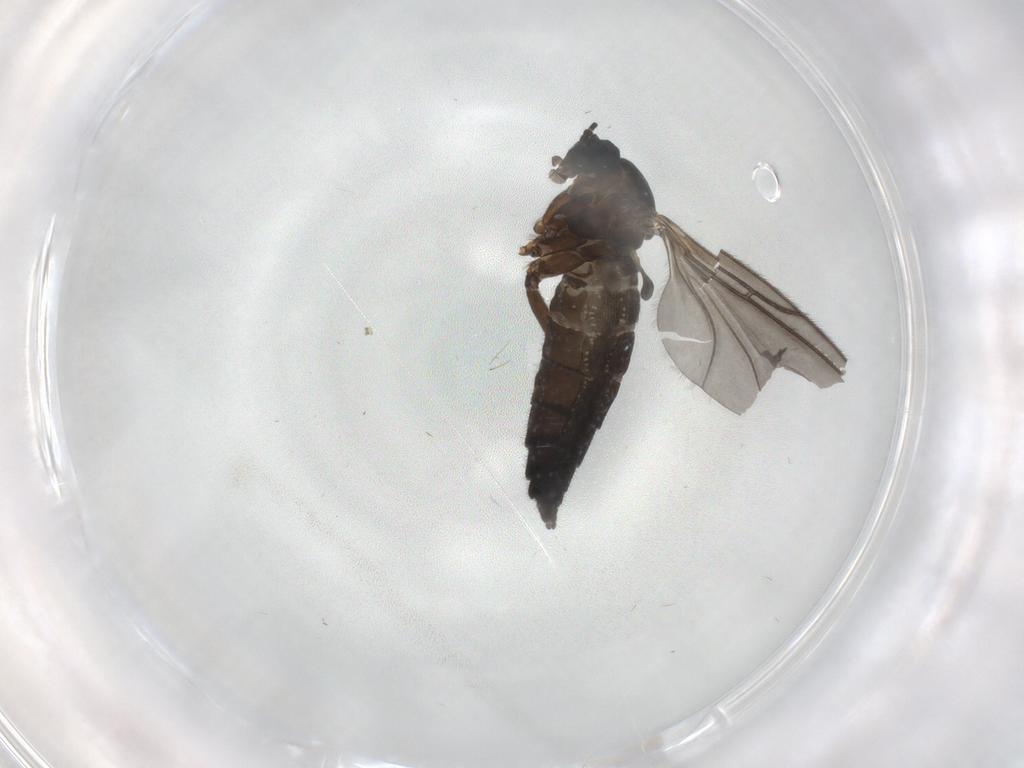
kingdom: Animalia
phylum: Arthropoda
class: Insecta
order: Diptera
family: Sciaridae
